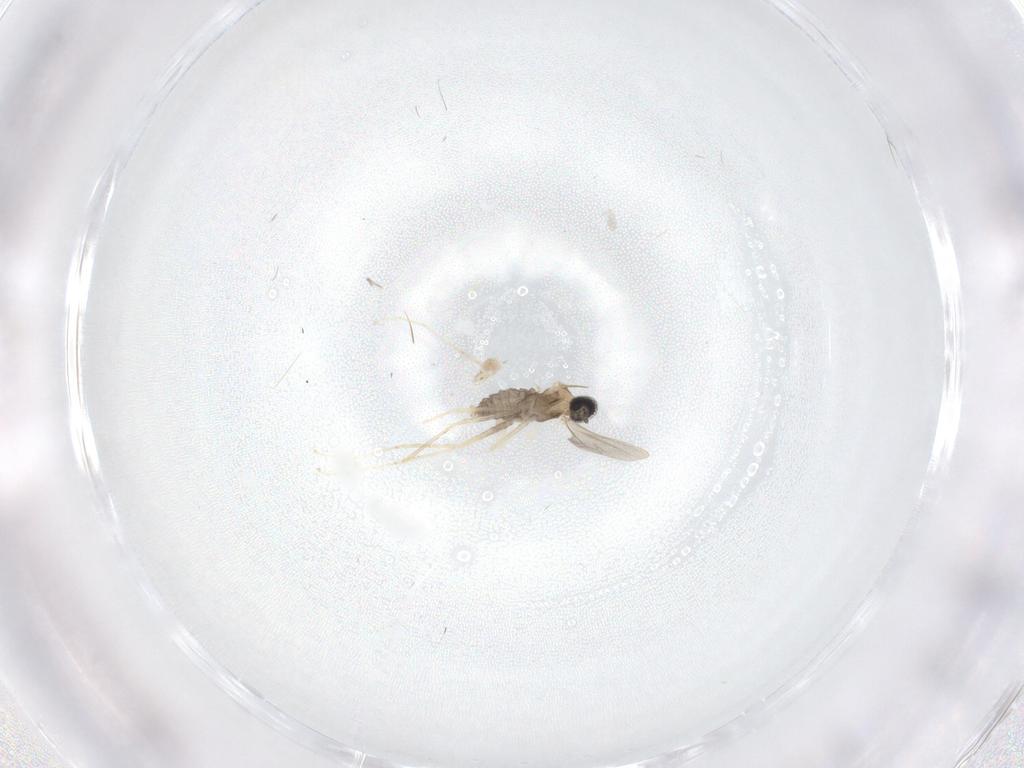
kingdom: Animalia
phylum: Arthropoda
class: Insecta
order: Diptera
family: Cecidomyiidae
